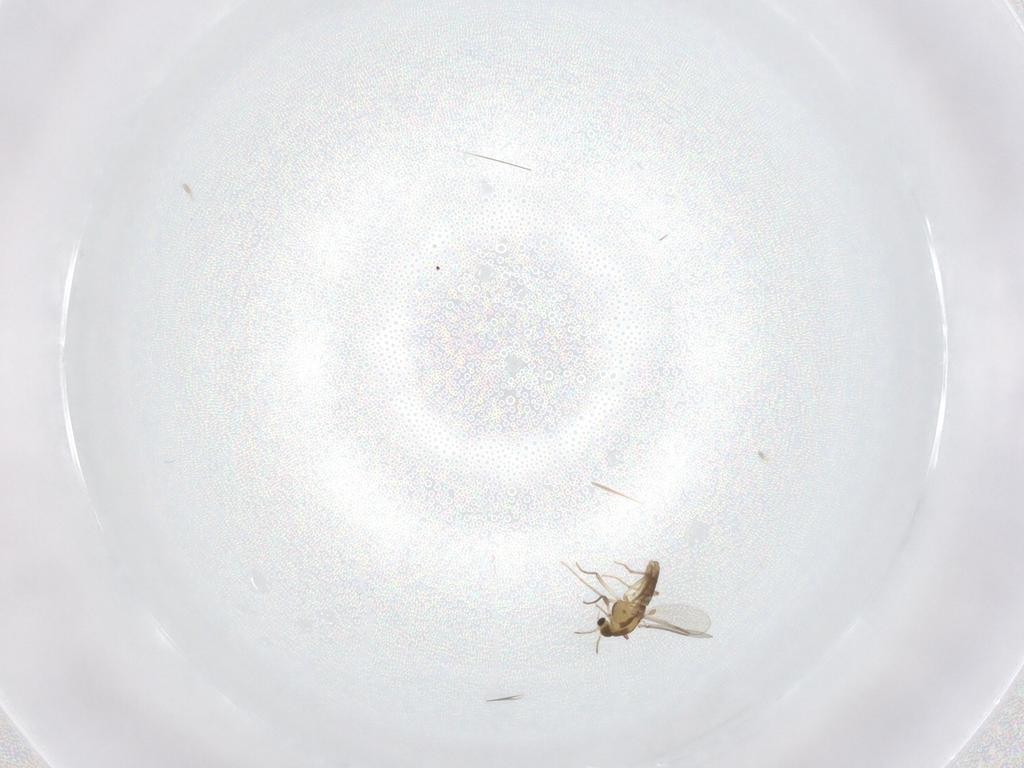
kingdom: Animalia
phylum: Arthropoda
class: Insecta
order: Diptera
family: Chironomidae
